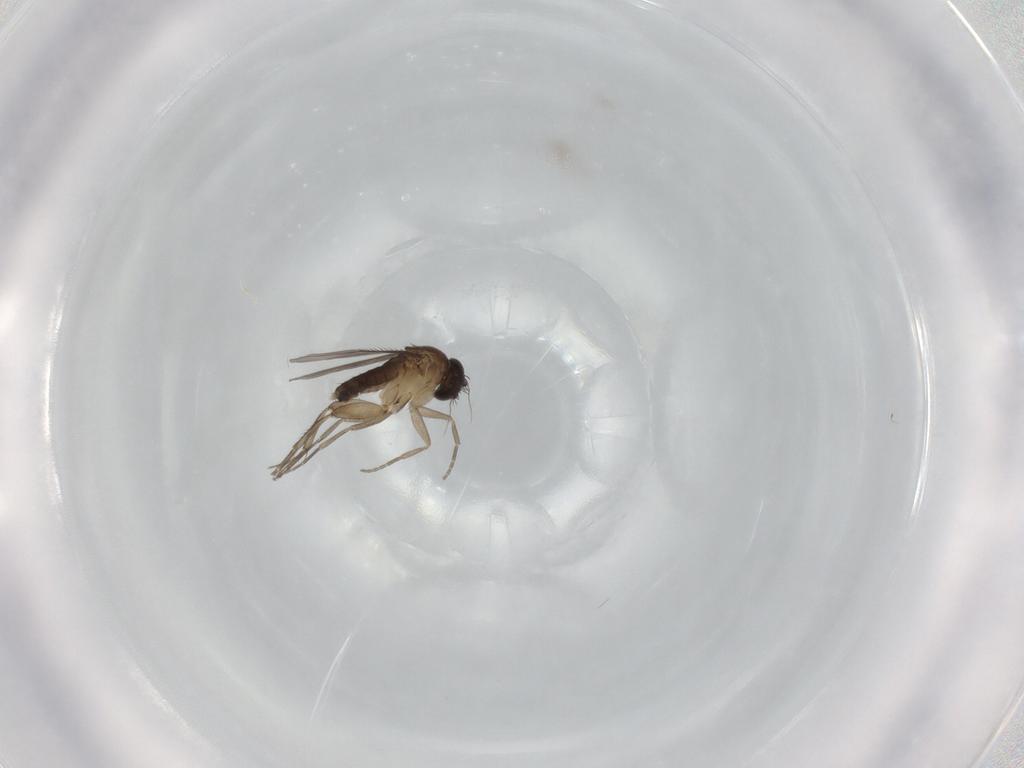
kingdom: Animalia
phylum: Arthropoda
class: Insecta
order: Diptera
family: Phoridae
